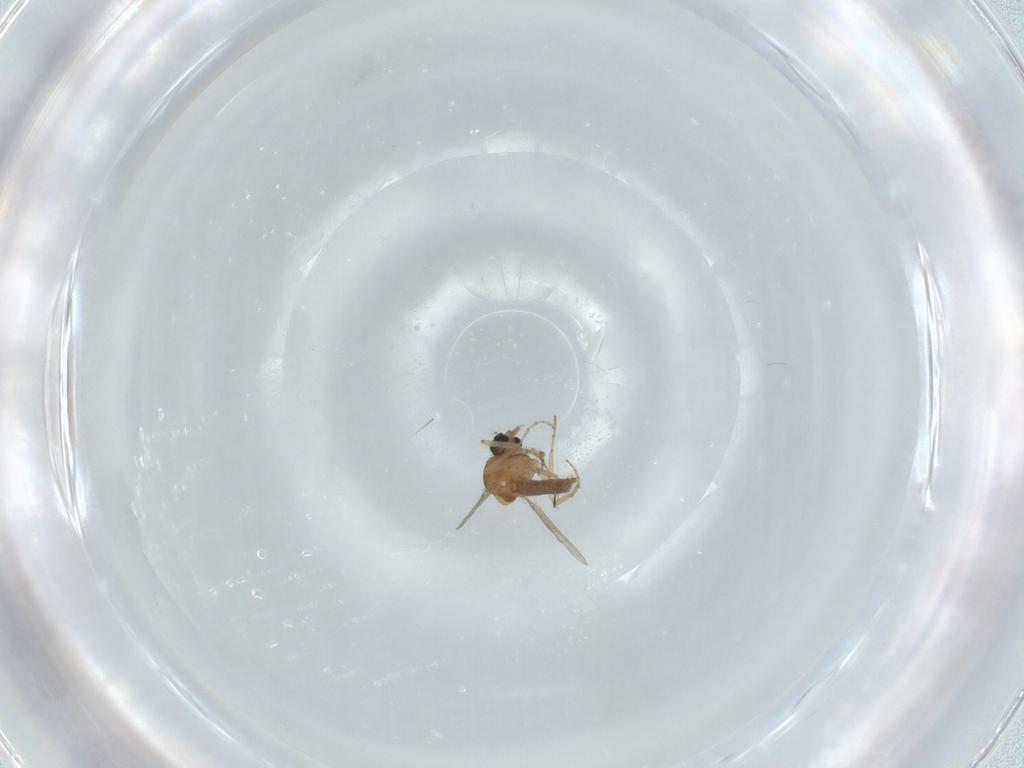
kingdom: Animalia
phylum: Arthropoda
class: Insecta
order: Diptera
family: Ceratopogonidae
